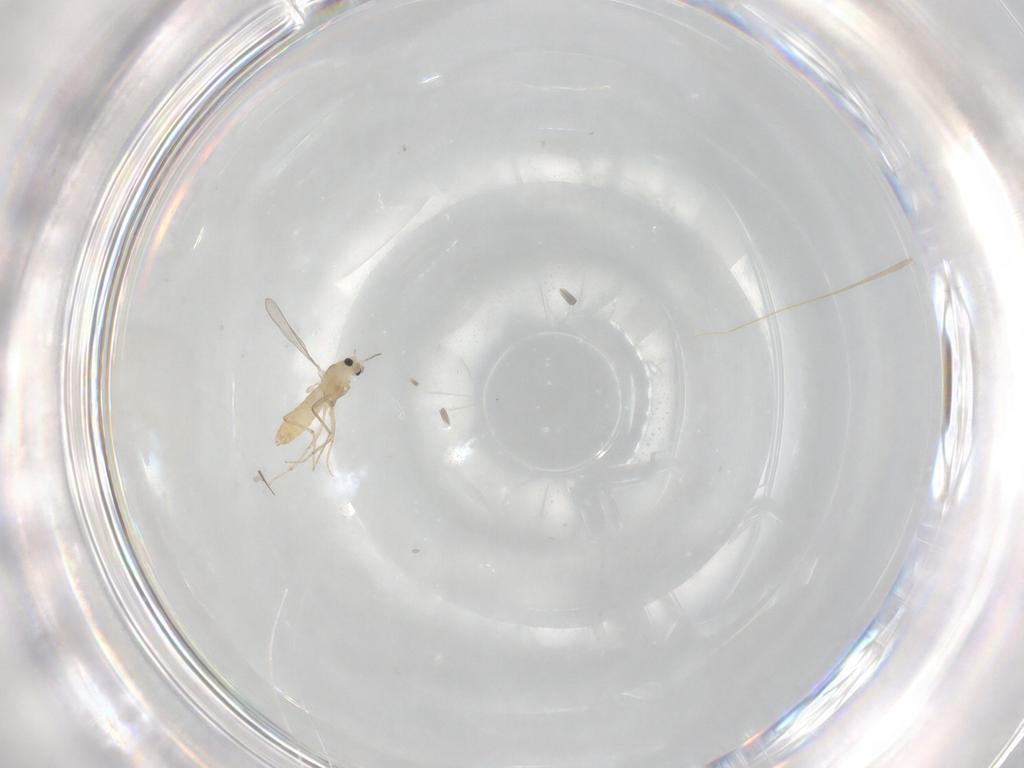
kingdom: Animalia
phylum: Arthropoda
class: Insecta
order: Diptera
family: Chironomidae
